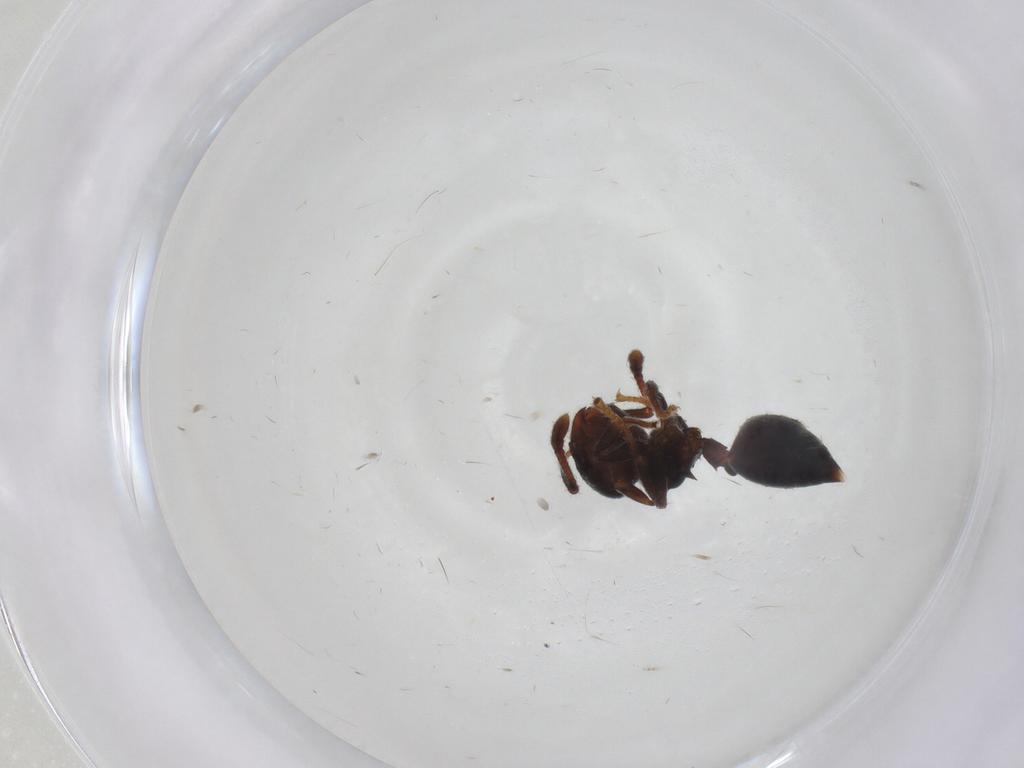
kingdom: Animalia
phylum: Arthropoda
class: Insecta
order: Hymenoptera
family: Formicidae
